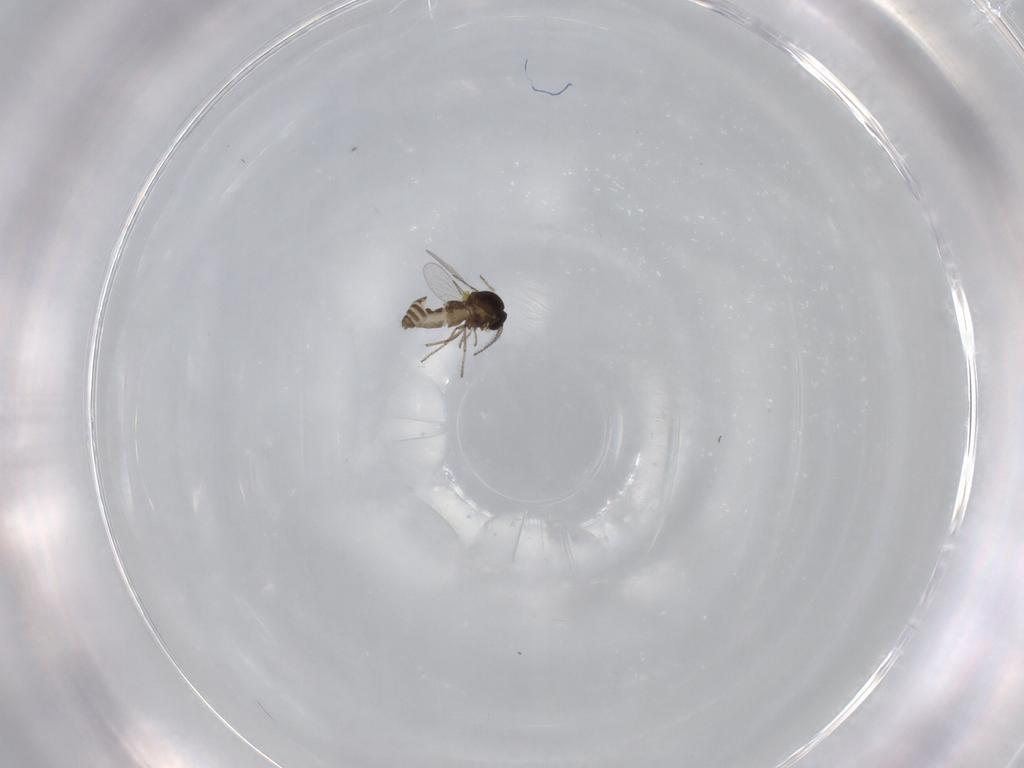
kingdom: Animalia
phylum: Arthropoda
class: Insecta
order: Diptera
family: Ceratopogonidae
